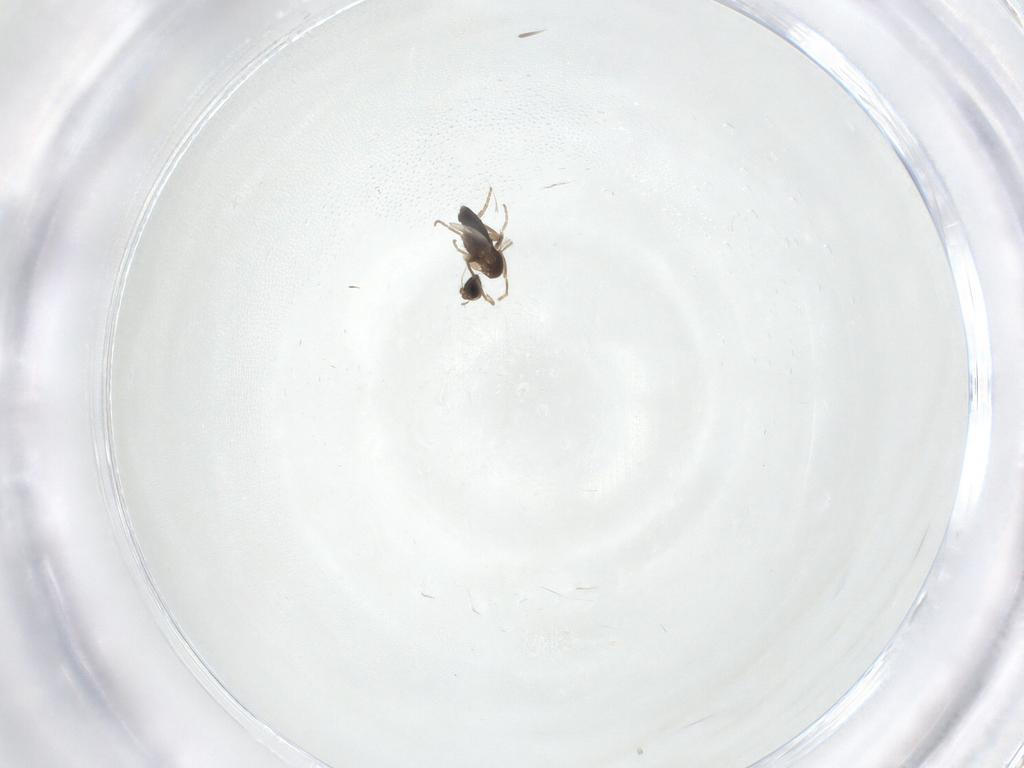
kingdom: Animalia
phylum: Arthropoda
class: Insecta
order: Diptera
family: Phoridae
